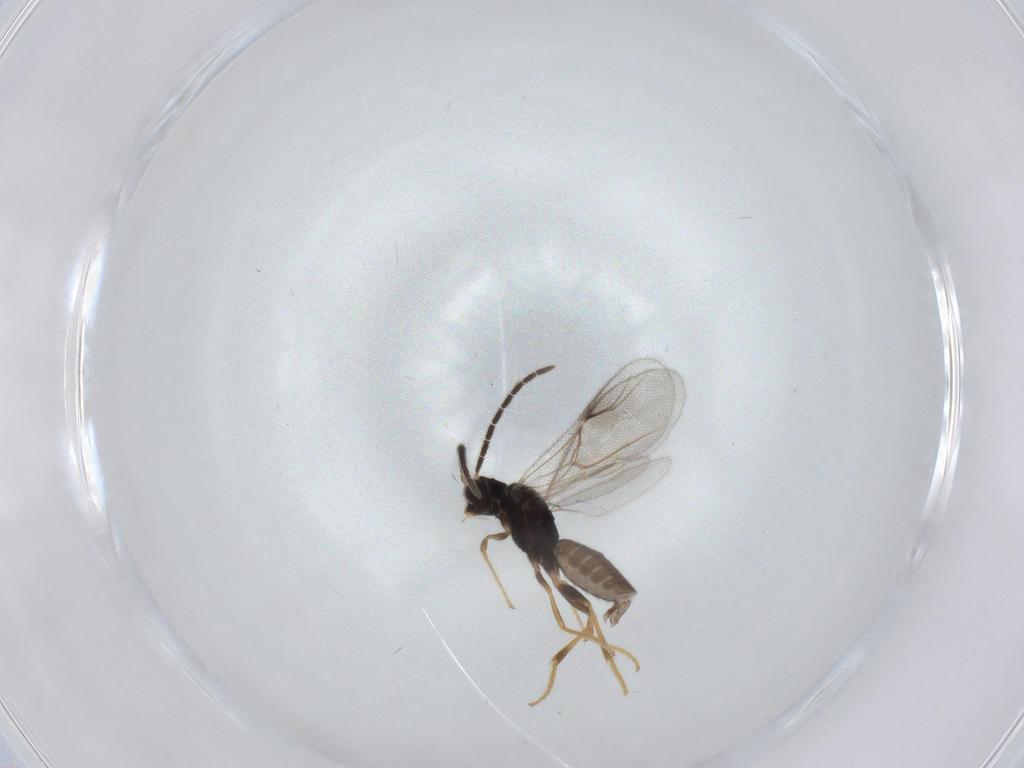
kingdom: Animalia
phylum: Arthropoda
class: Insecta
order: Hymenoptera
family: Dryinidae
